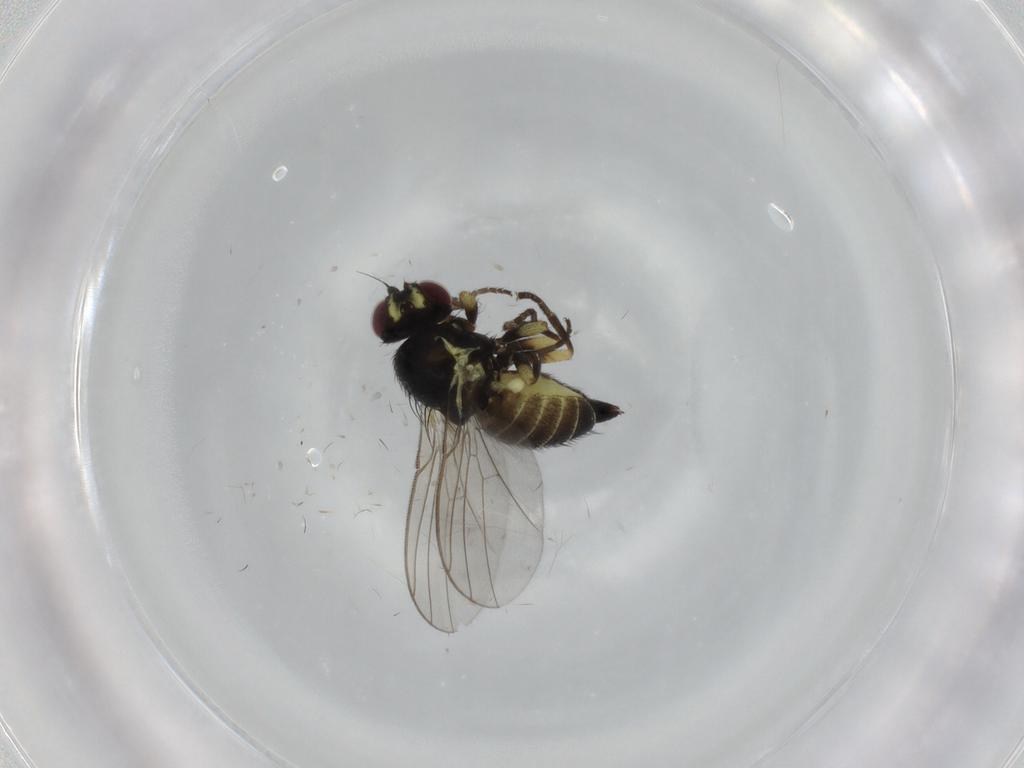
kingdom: Animalia
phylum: Arthropoda
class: Insecta
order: Diptera
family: Agromyzidae
